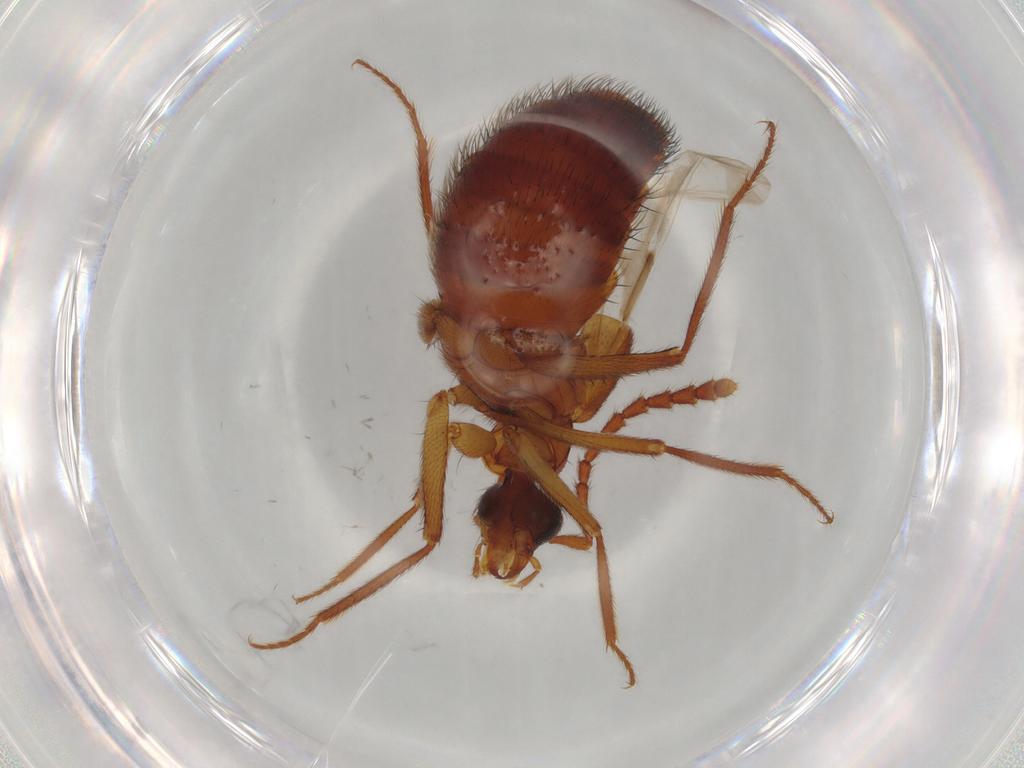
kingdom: Animalia
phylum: Arthropoda
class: Insecta
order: Coleoptera
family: Staphylinidae
